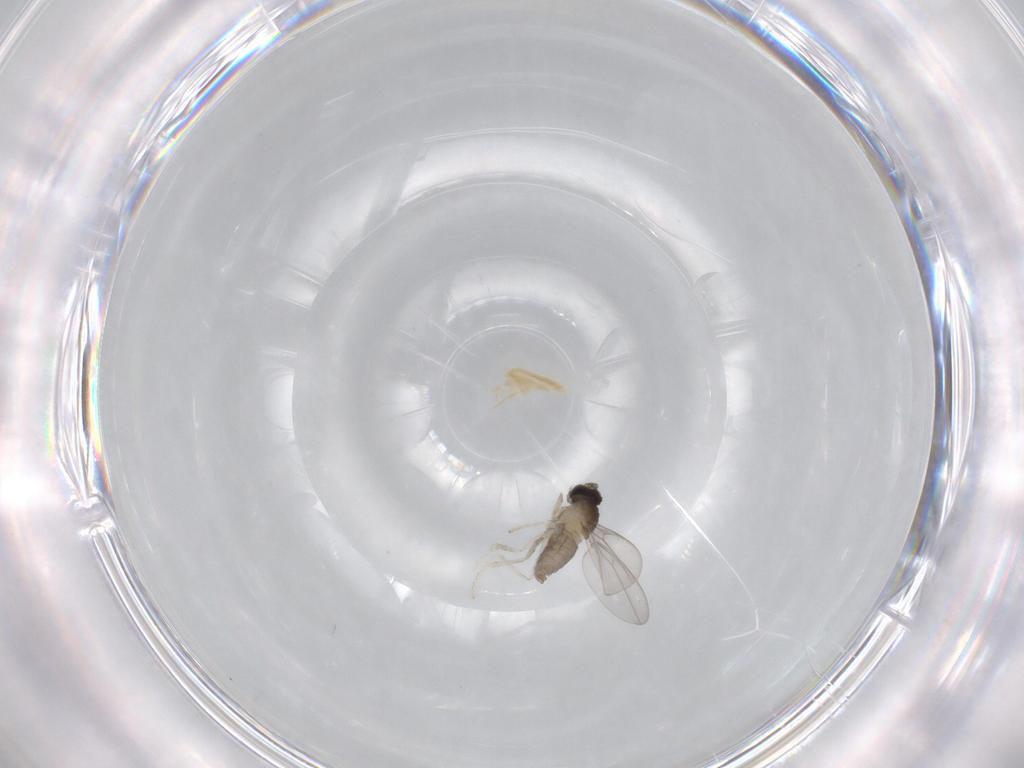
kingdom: Animalia
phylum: Arthropoda
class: Insecta
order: Diptera
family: Cecidomyiidae
